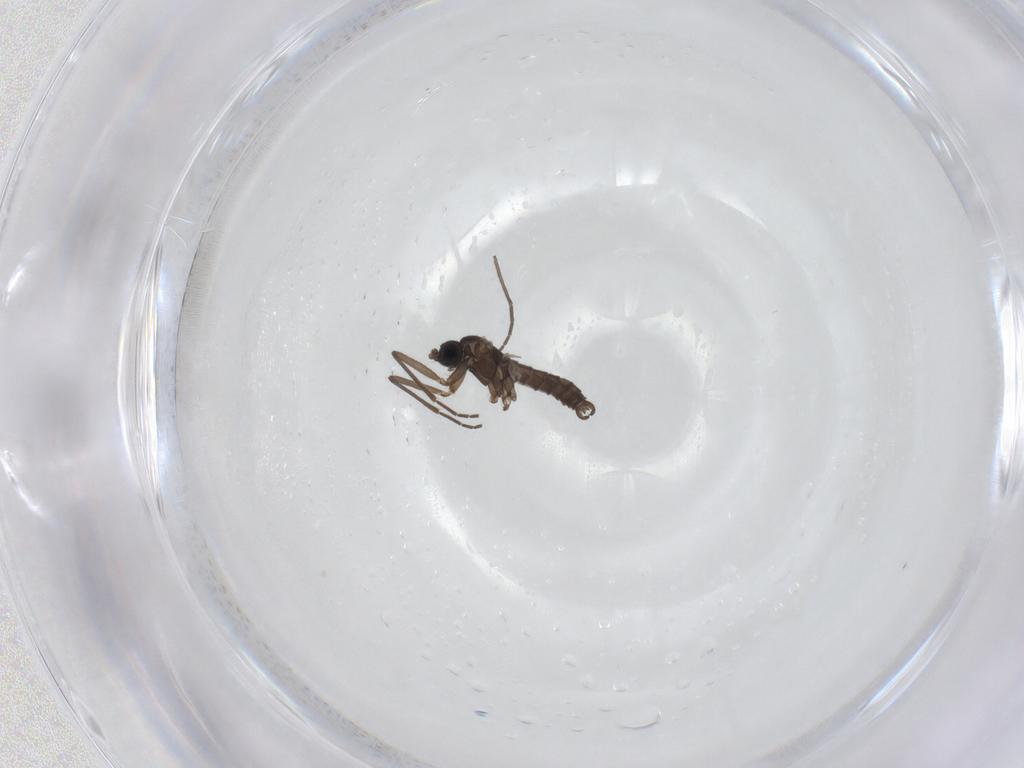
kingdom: Animalia
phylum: Arthropoda
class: Insecta
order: Diptera
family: Sciaridae
